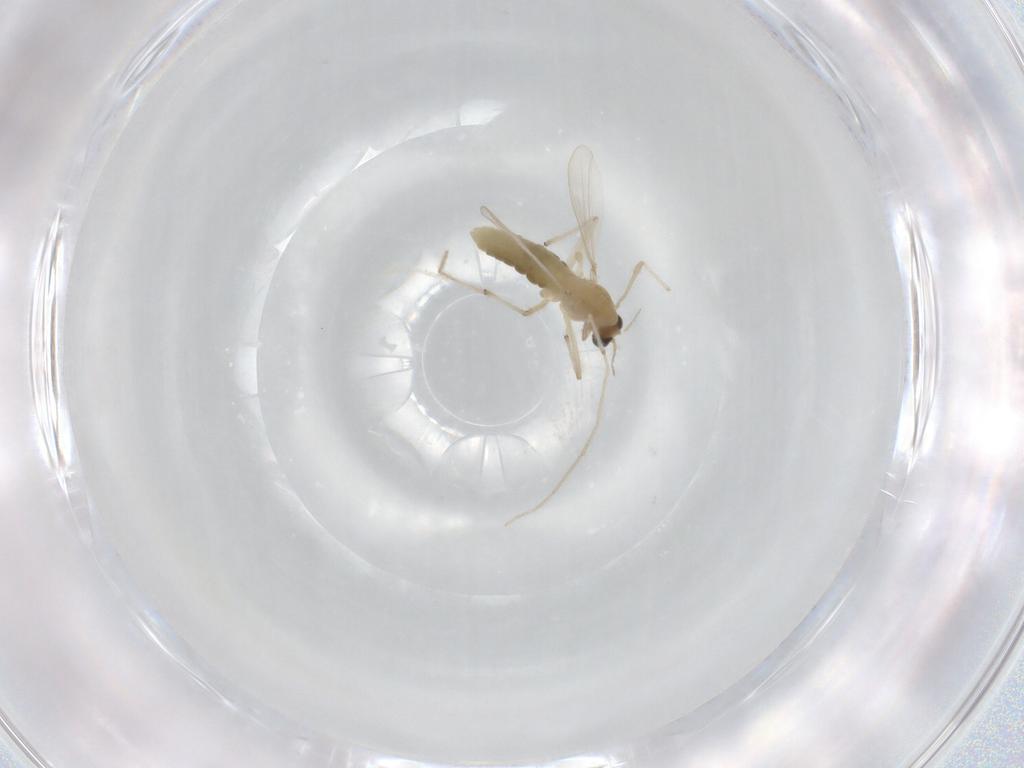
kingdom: Animalia
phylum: Arthropoda
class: Insecta
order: Diptera
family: Chironomidae
